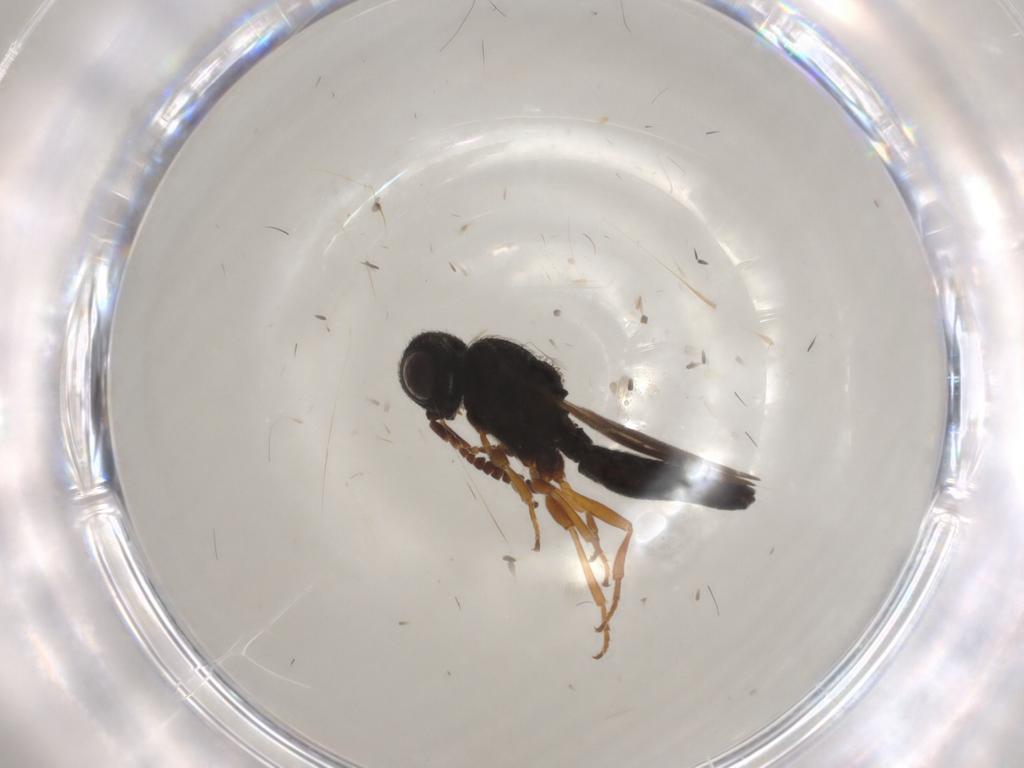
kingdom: Animalia
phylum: Arthropoda
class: Insecta
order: Hymenoptera
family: Scelionidae
